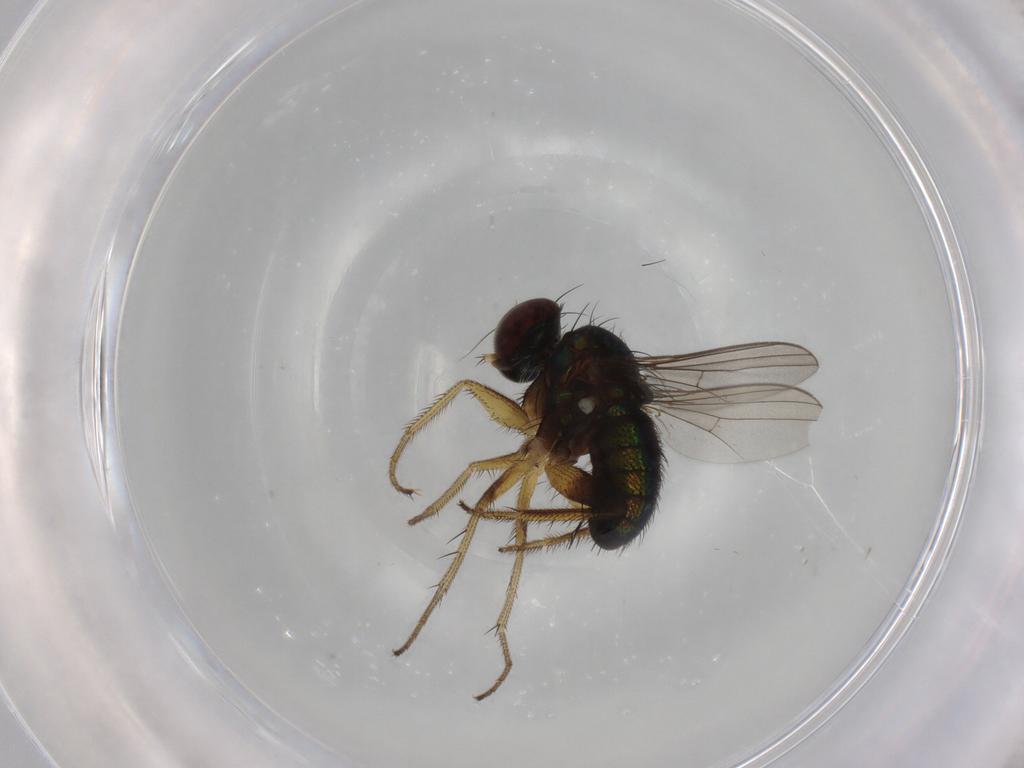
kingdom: Animalia
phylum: Arthropoda
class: Insecta
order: Diptera
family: Dolichopodidae
